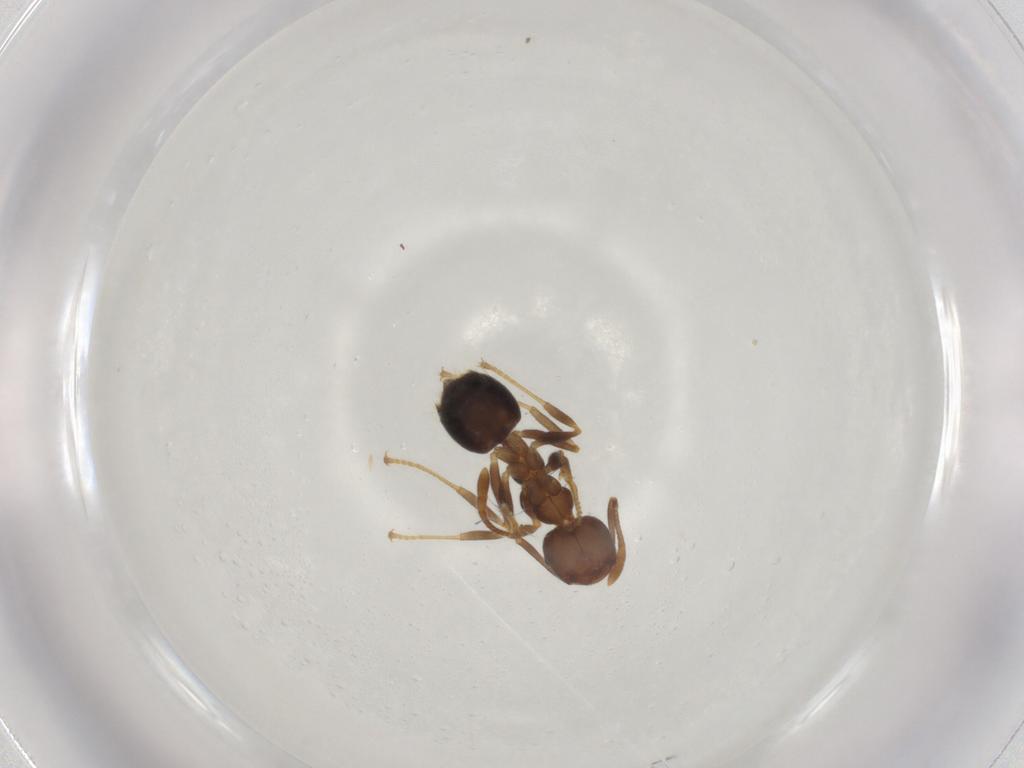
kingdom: Animalia
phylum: Arthropoda
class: Insecta
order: Hymenoptera
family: Formicidae
